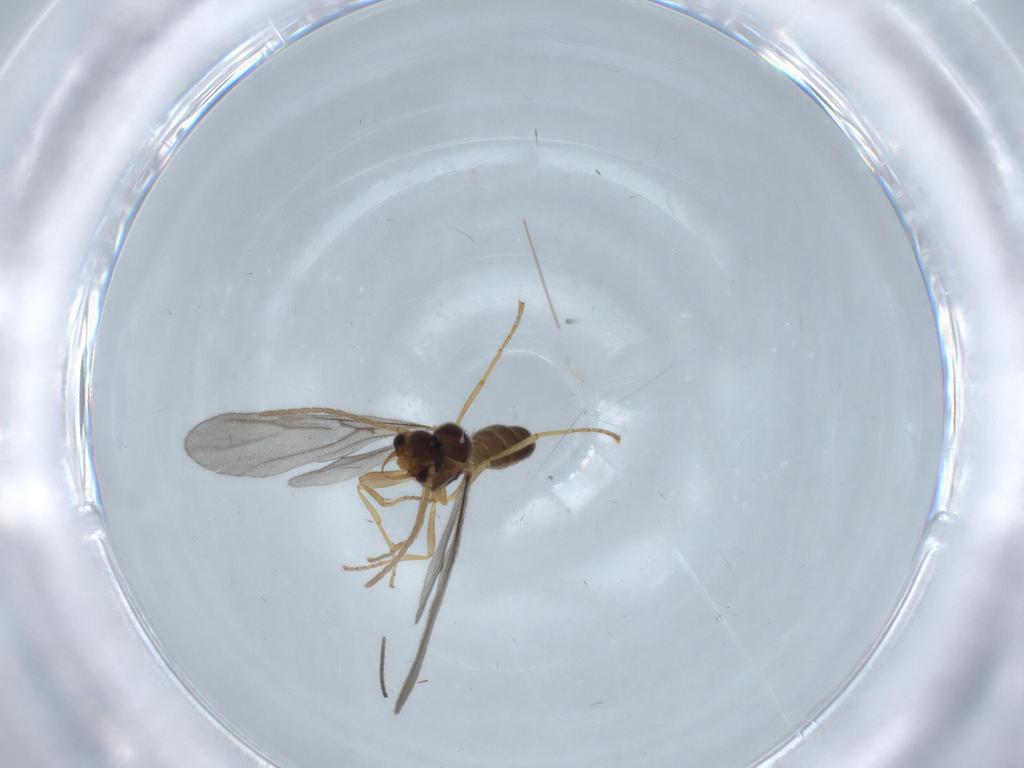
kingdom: Animalia
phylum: Arthropoda
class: Insecta
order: Hymenoptera
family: Formicidae
